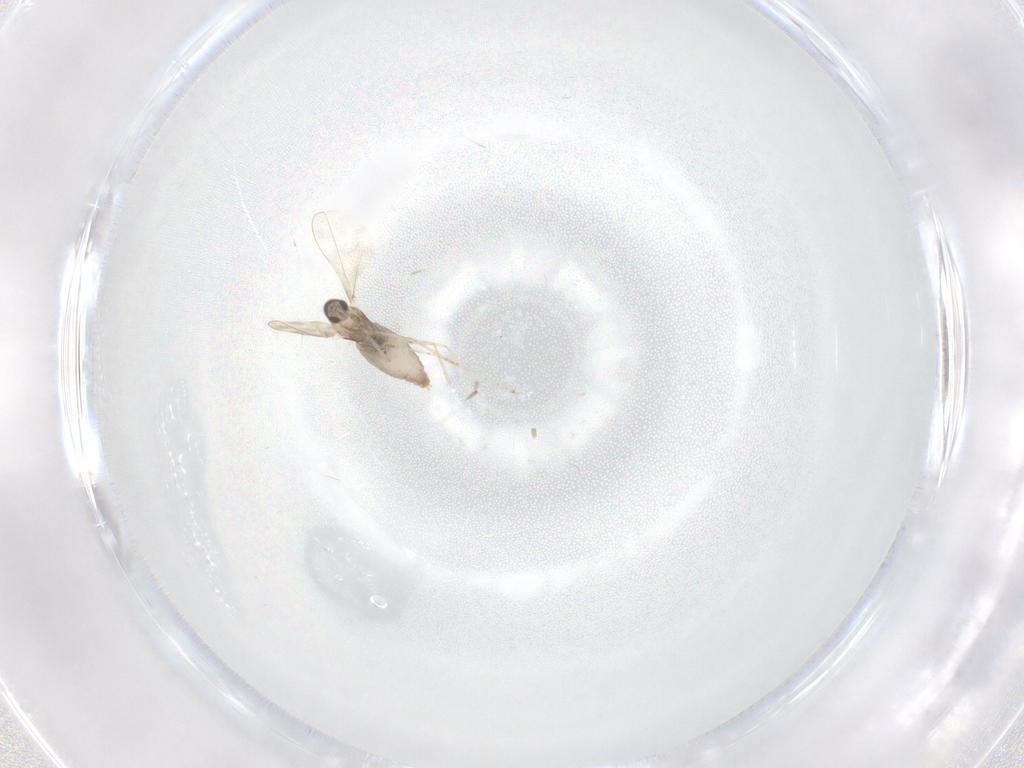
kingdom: Animalia
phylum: Arthropoda
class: Insecta
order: Diptera
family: Cecidomyiidae
